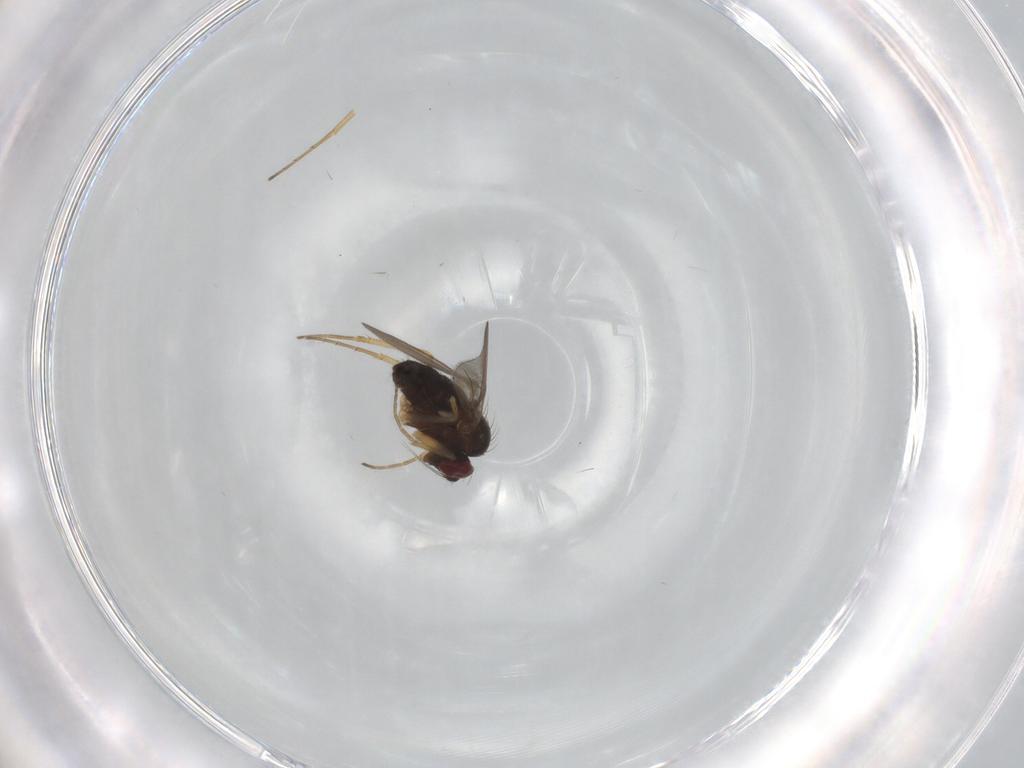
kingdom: Animalia
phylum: Arthropoda
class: Insecta
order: Diptera
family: Dolichopodidae
